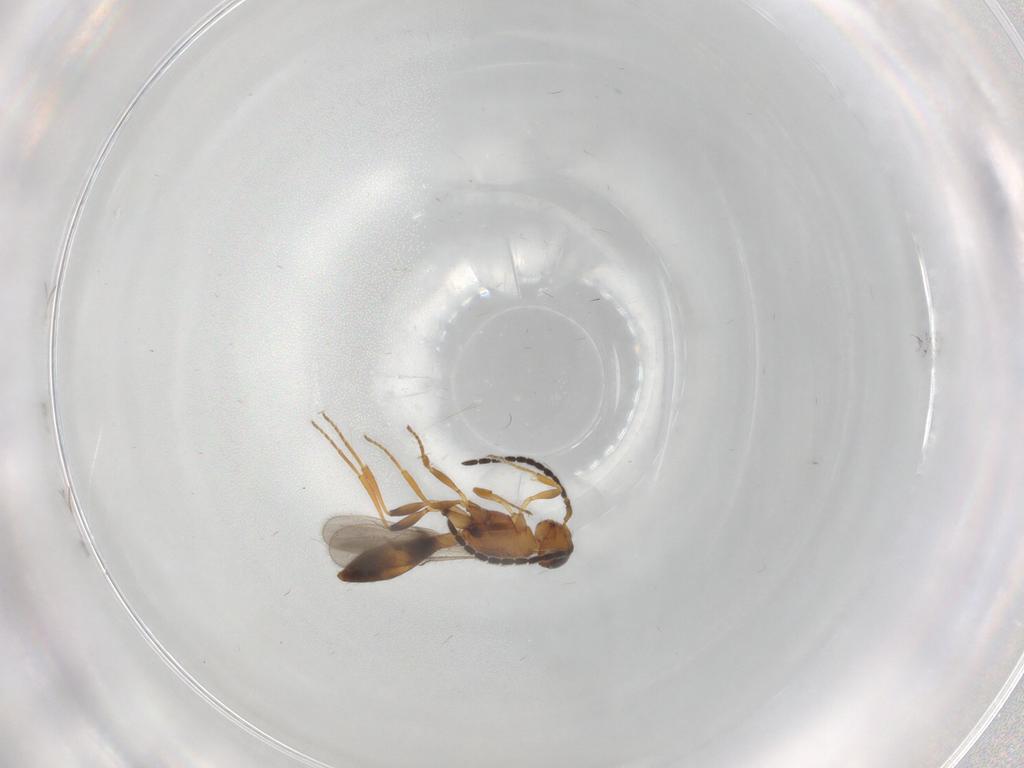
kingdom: Animalia
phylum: Arthropoda
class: Insecta
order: Hymenoptera
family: Scelionidae
